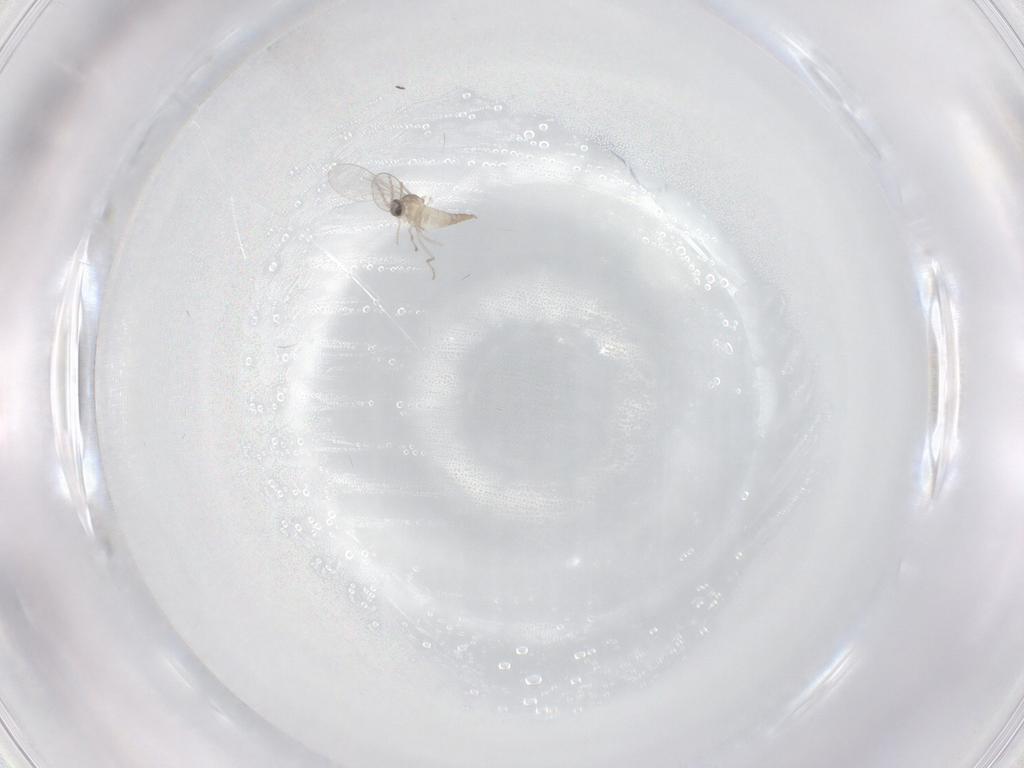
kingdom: Animalia
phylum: Arthropoda
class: Insecta
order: Diptera
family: Cecidomyiidae
